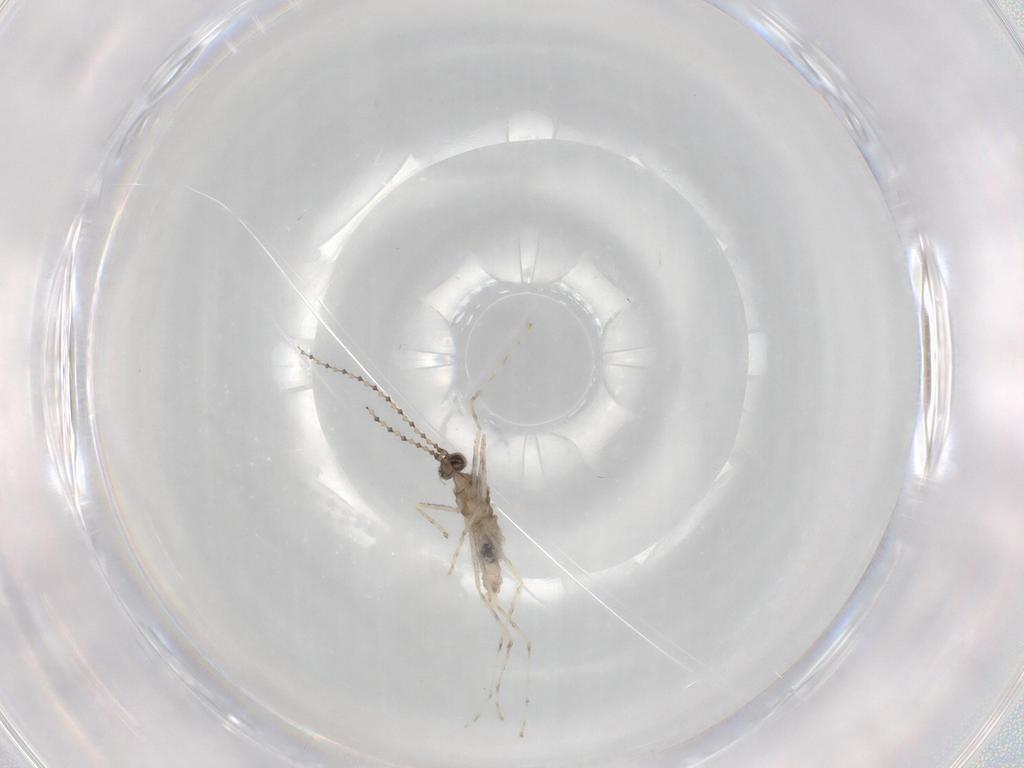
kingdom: Animalia
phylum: Arthropoda
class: Insecta
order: Diptera
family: Cecidomyiidae
